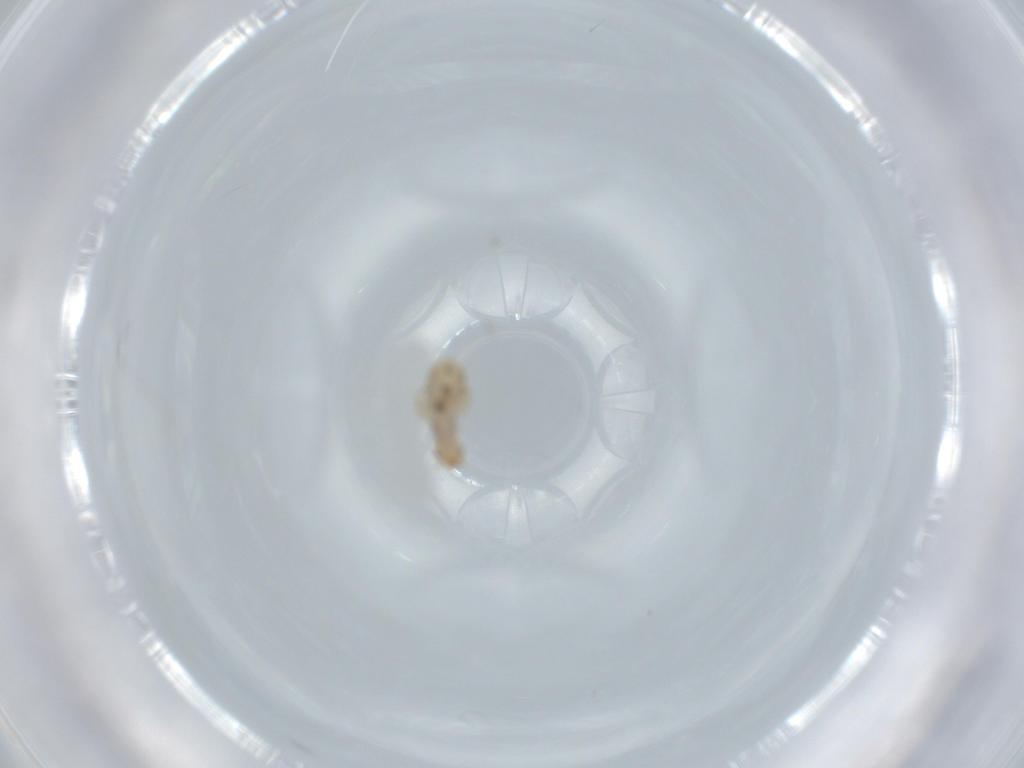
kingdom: Animalia
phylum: Arthropoda
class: Insecta
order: Psocodea
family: Liposcelididae
